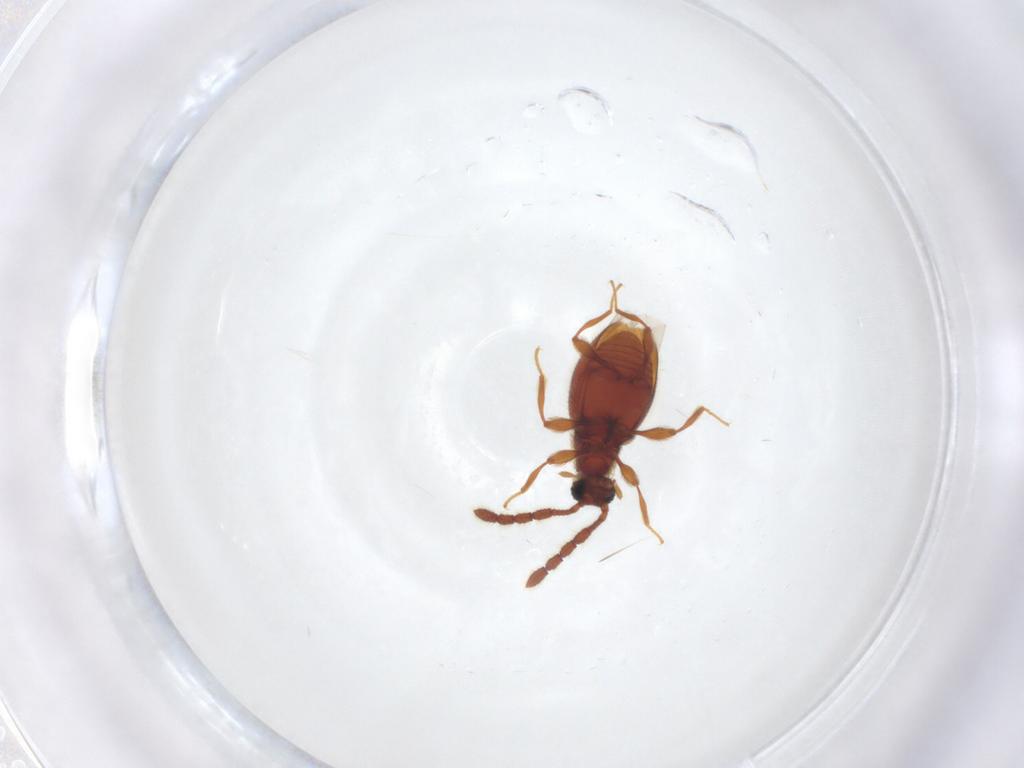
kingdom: Animalia
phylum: Arthropoda
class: Insecta
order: Coleoptera
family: Staphylinidae
